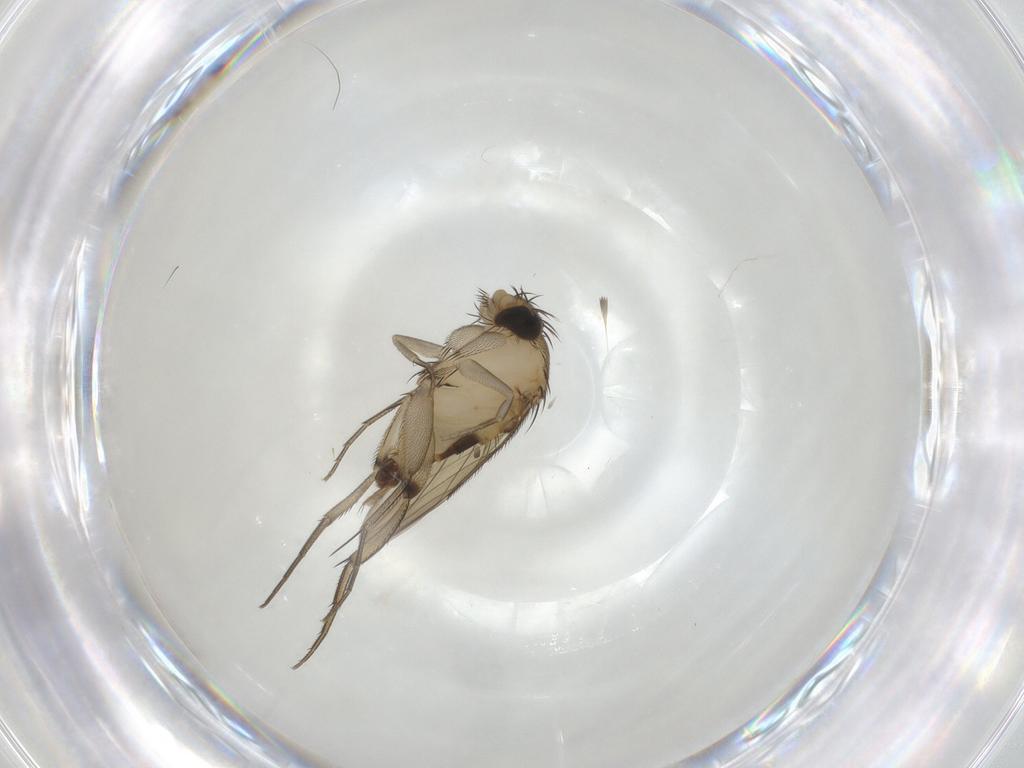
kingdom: Animalia
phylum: Arthropoda
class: Insecta
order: Diptera
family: Phoridae
